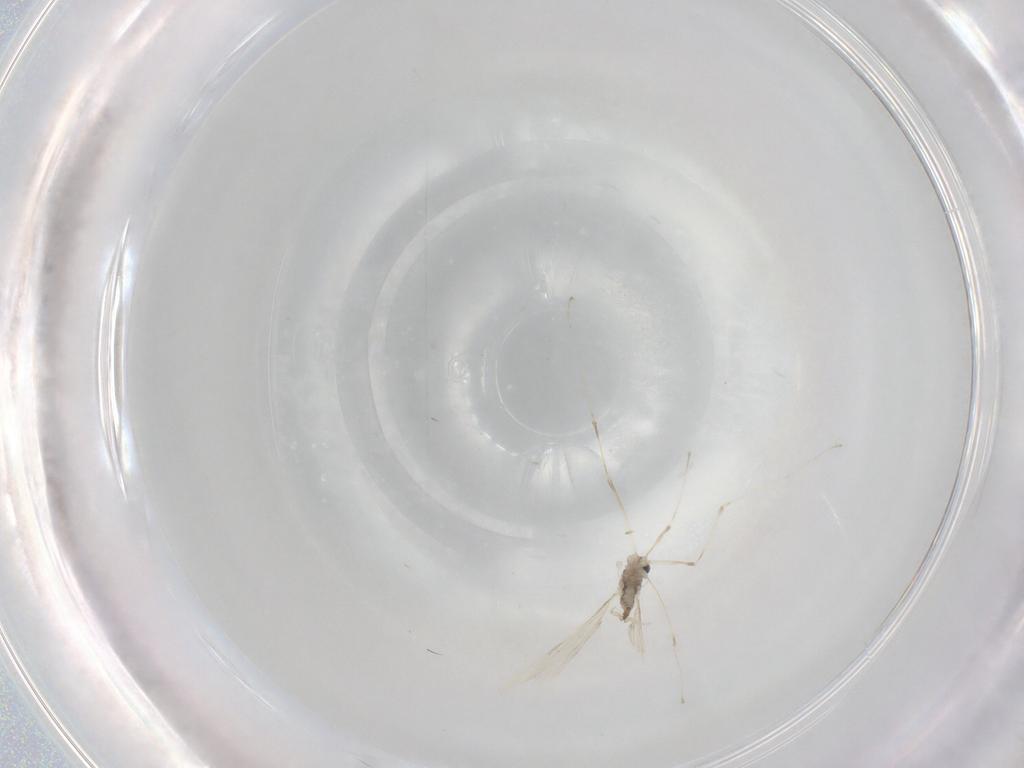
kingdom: Animalia
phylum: Arthropoda
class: Insecta
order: Diptera
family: Cecidomyiidae
